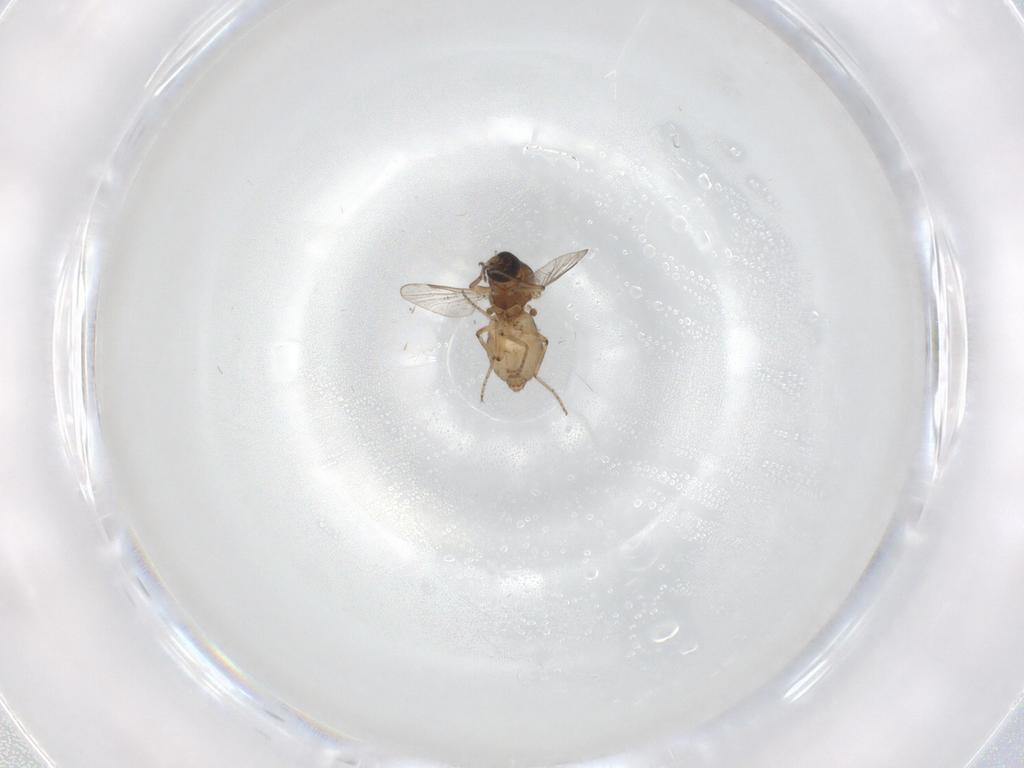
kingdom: Animalia
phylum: Arthropoda
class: Insecta
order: Diptera
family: Ceratopogonidae
